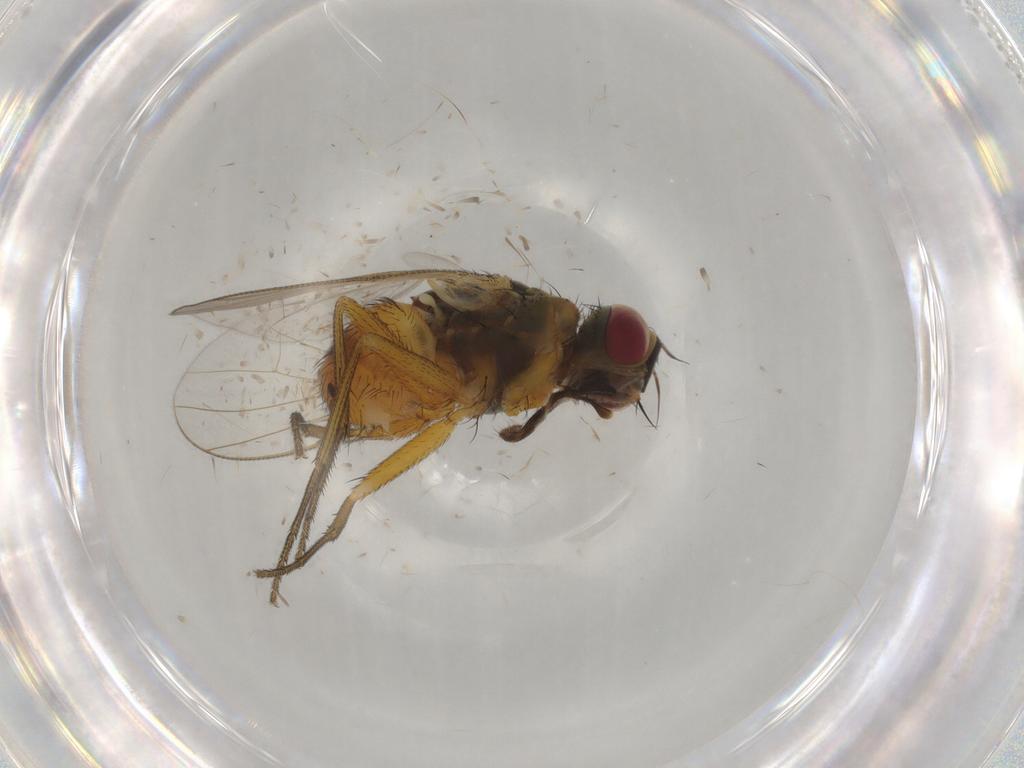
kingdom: Animalia
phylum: Arthropoda
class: Insecta
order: Diptera
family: Muscidae
